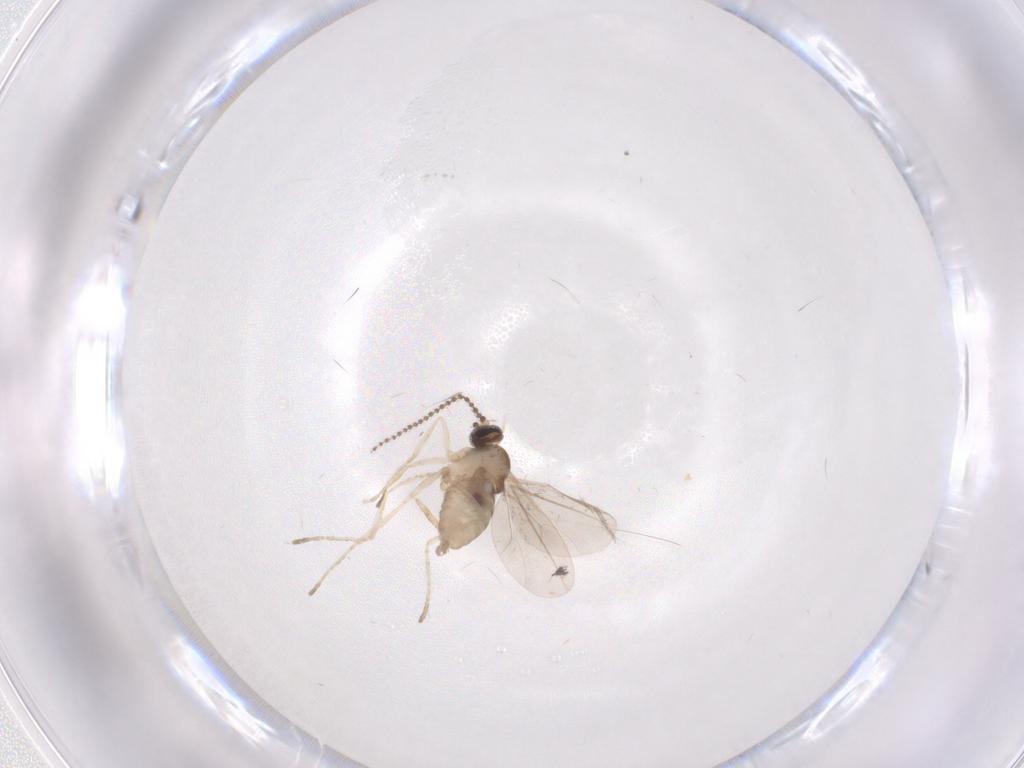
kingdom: Animalia
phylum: Arthropoda
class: Insecta
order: Diptera
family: Cecidomyiidae
